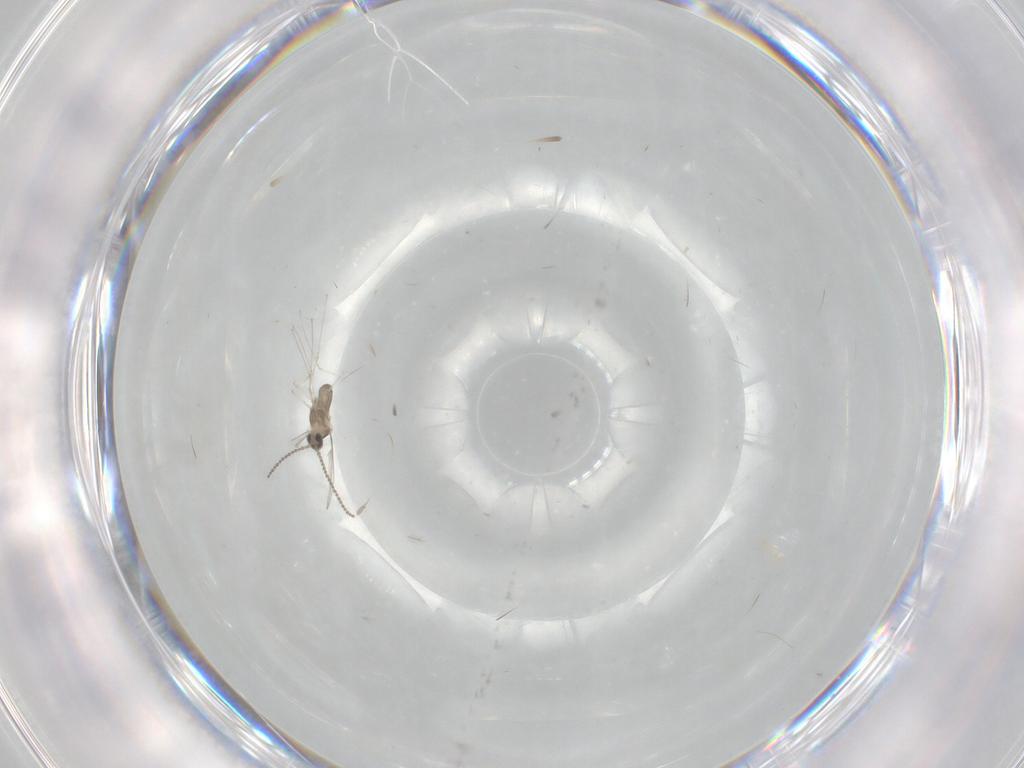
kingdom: Animalia
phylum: Arthropoda
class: Insecta
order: Diptera
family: Cecidomyiidae
